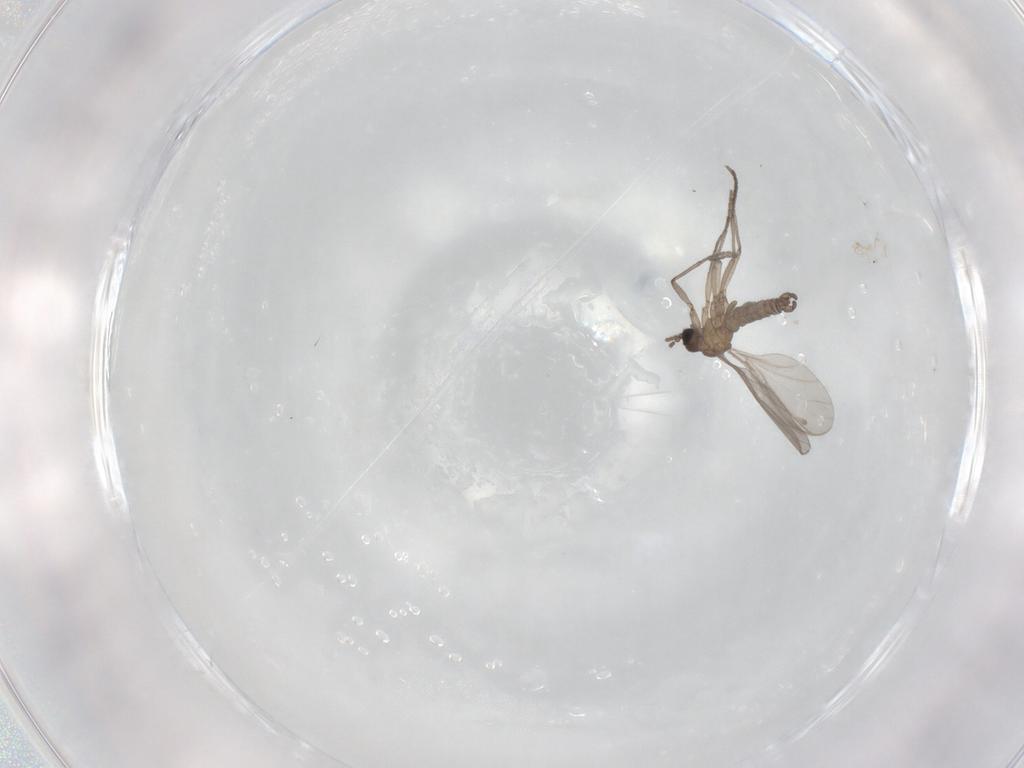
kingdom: Animalia
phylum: Arthropoda
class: Insecta
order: Diptera
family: Sciaridae
